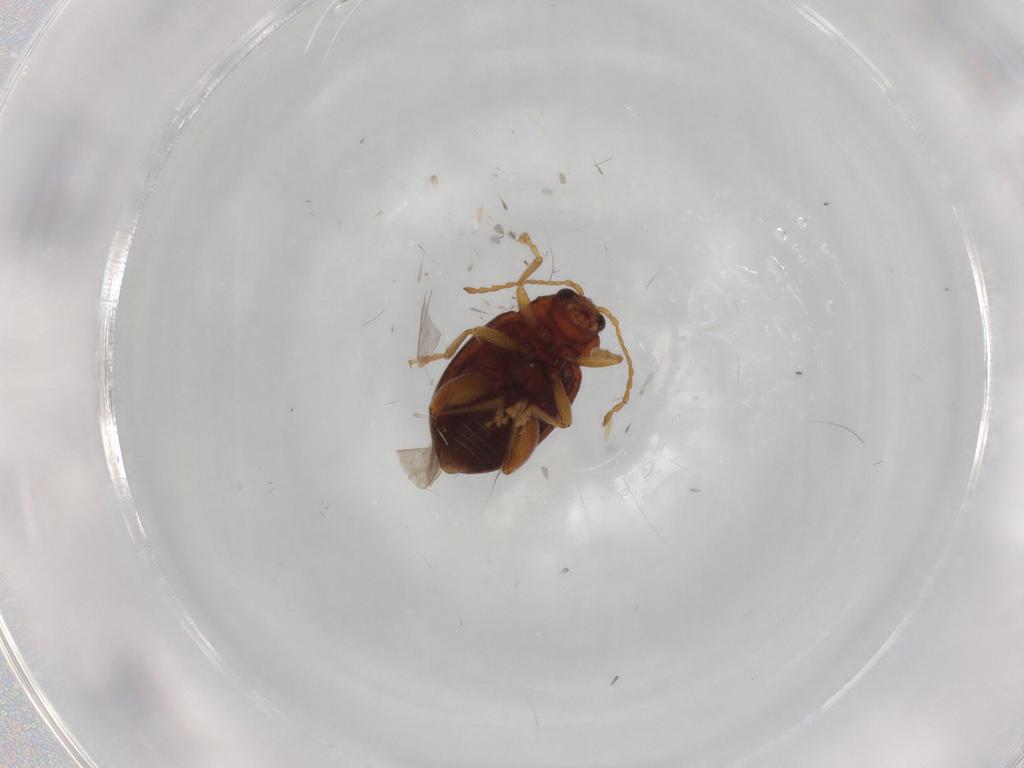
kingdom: Animalia
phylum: Arthropoda
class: Insecta
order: Coleoptera
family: Chrysomelidae
